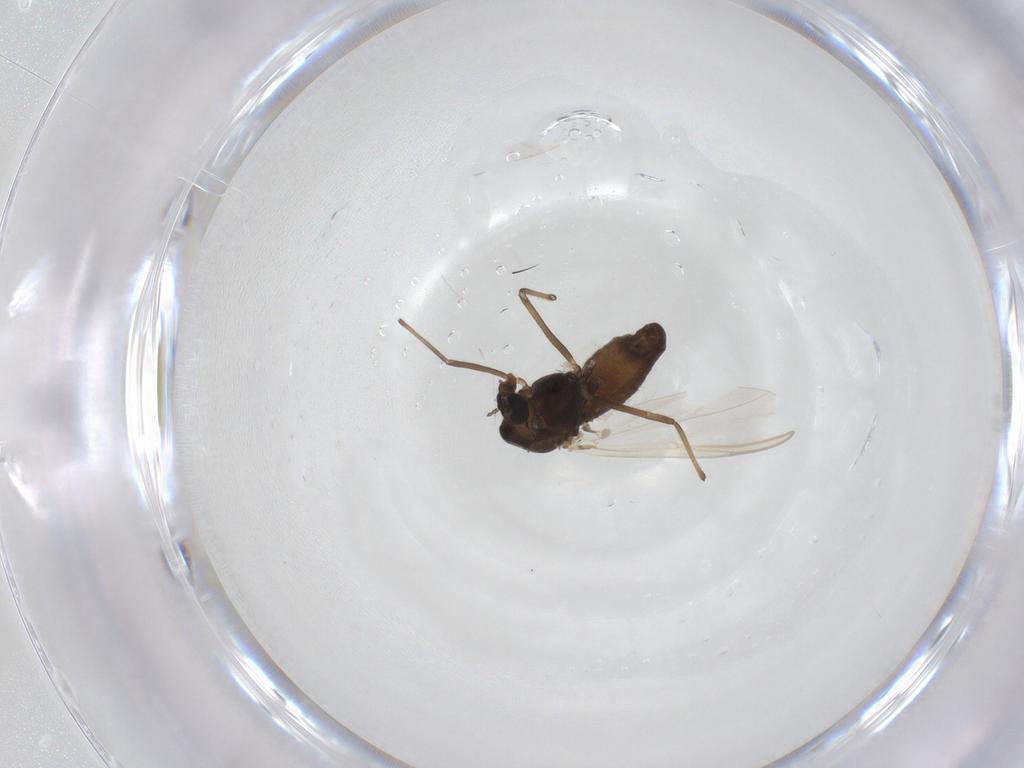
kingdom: Animalia
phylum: Arthropoda
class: Insecta
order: Diptera
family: Chironomidae
